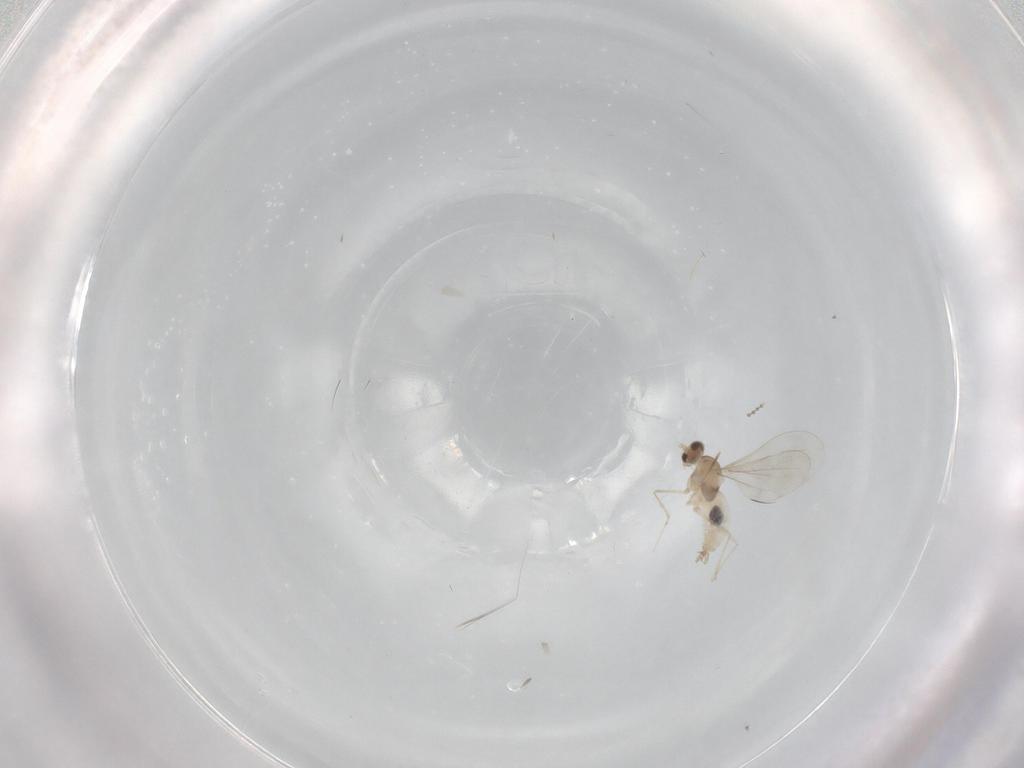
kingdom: Animalia
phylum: Arthropoda
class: Insecta
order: Diptera
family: Cecidomyiidae
